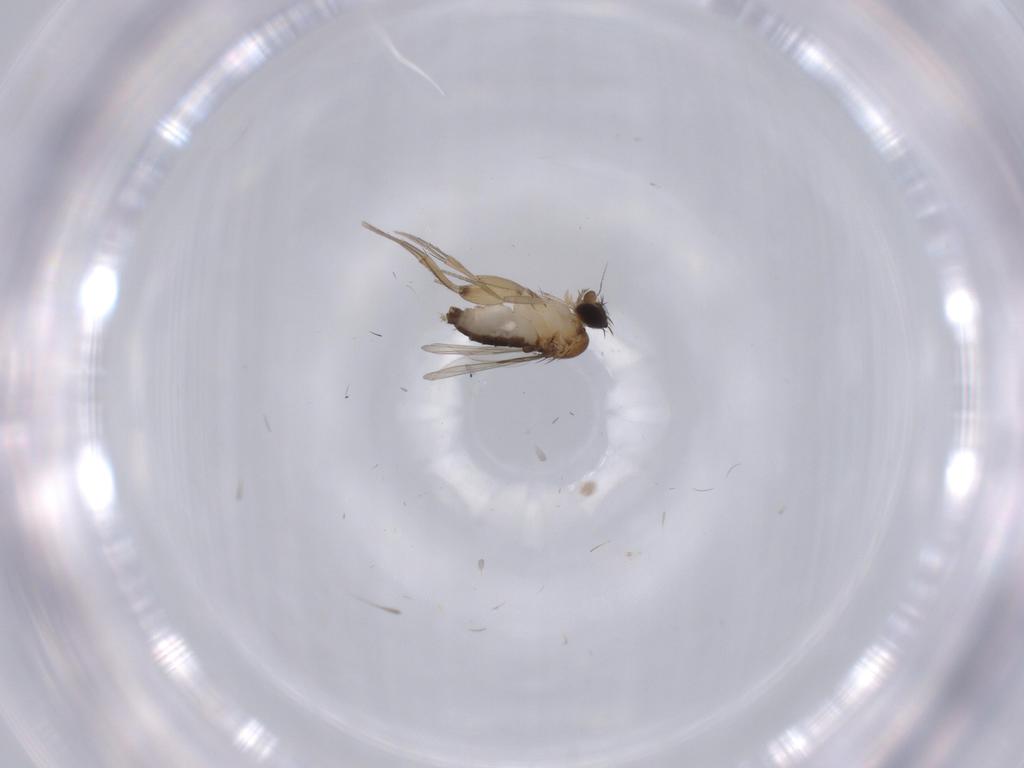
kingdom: Animalia
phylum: Arthropoda
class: Insecta
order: Diptera
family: Phoridae
